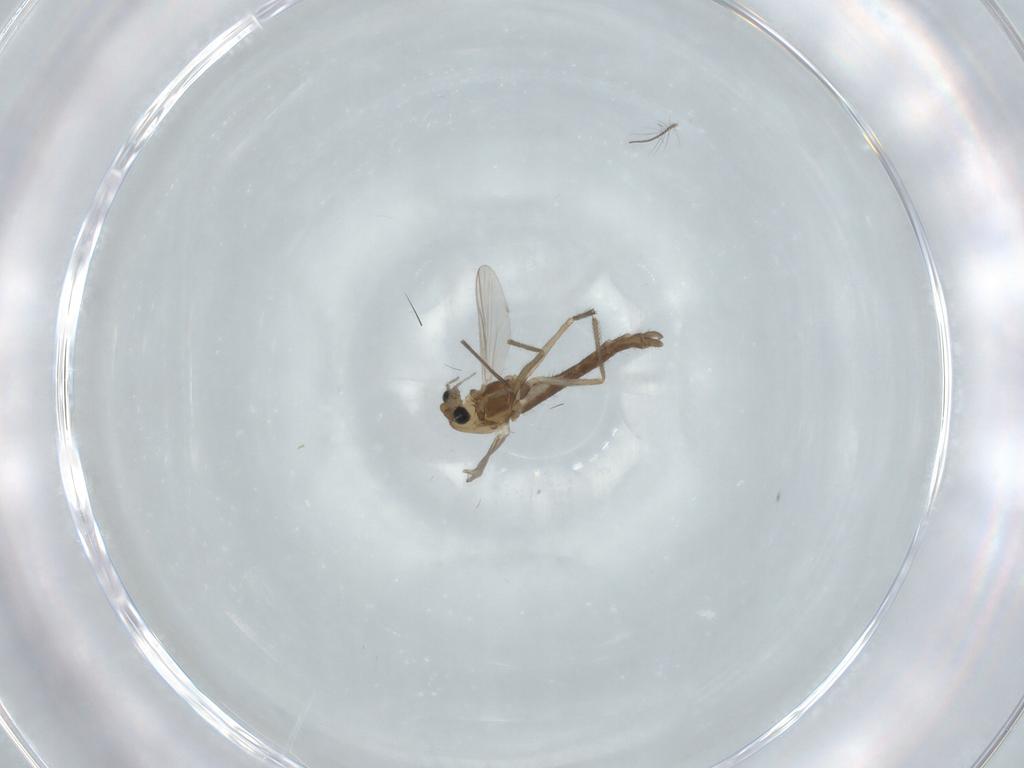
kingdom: Animalia
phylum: Arthropoda
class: Insecta
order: Diptera
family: Chironomidae
